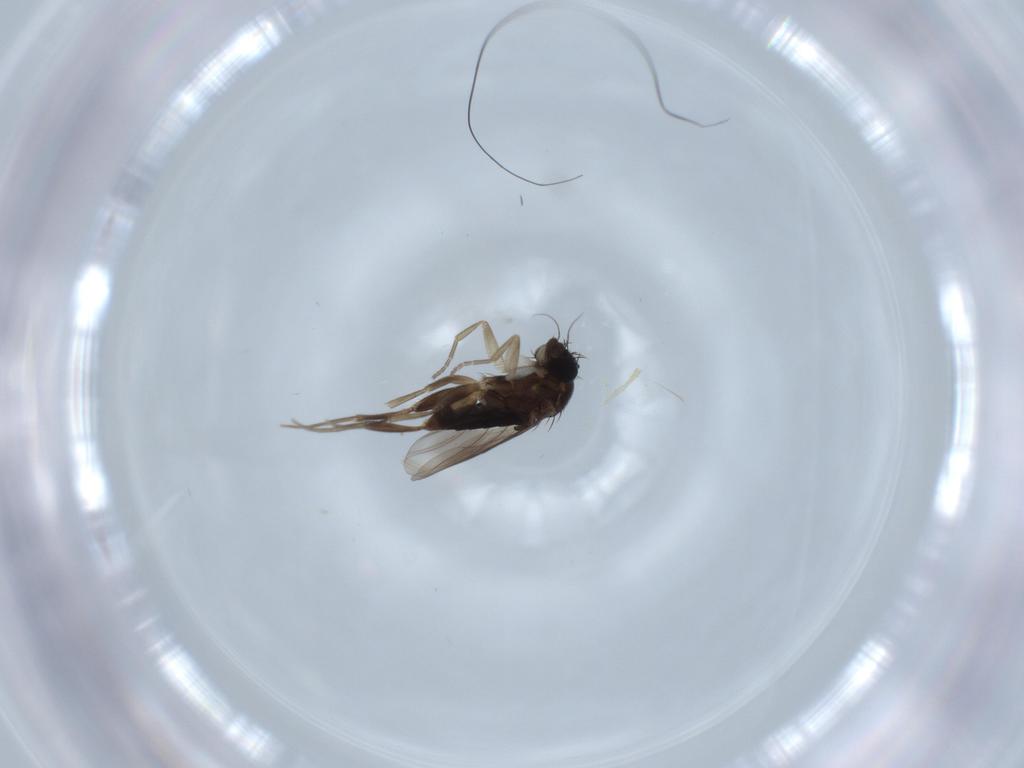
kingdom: Animalia
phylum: Arthropoda
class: Insecta
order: Diptera
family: Phoridae
